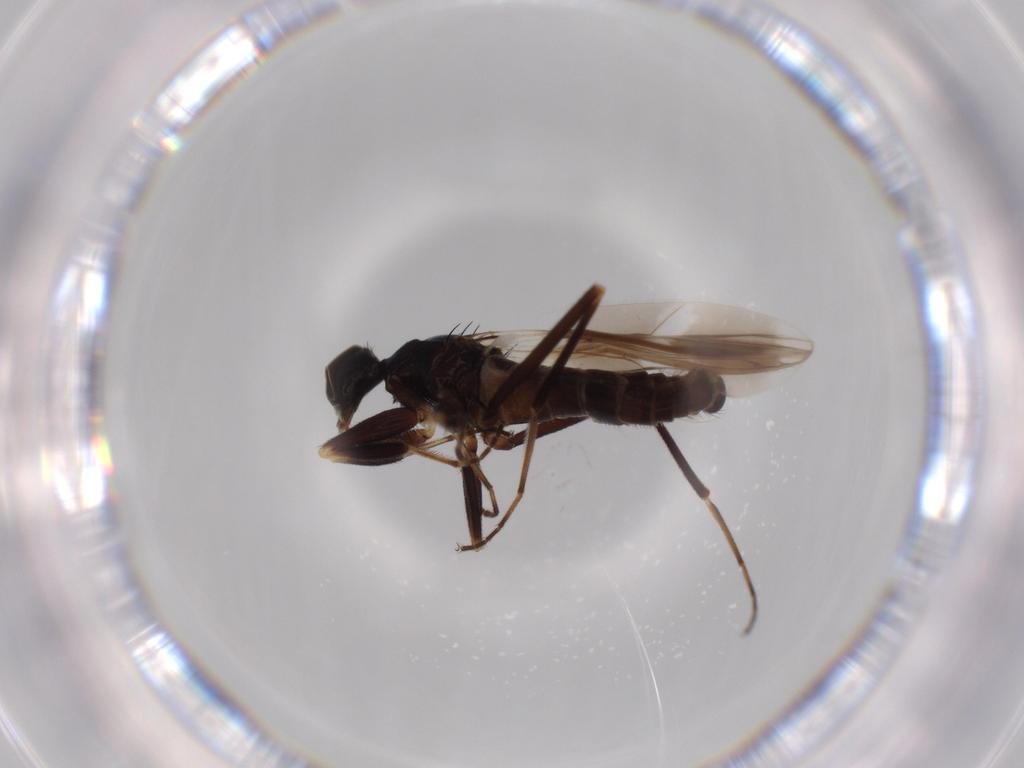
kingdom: Animalia
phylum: Arthropoda
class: Insecta
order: Diptera
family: Hybotidae
